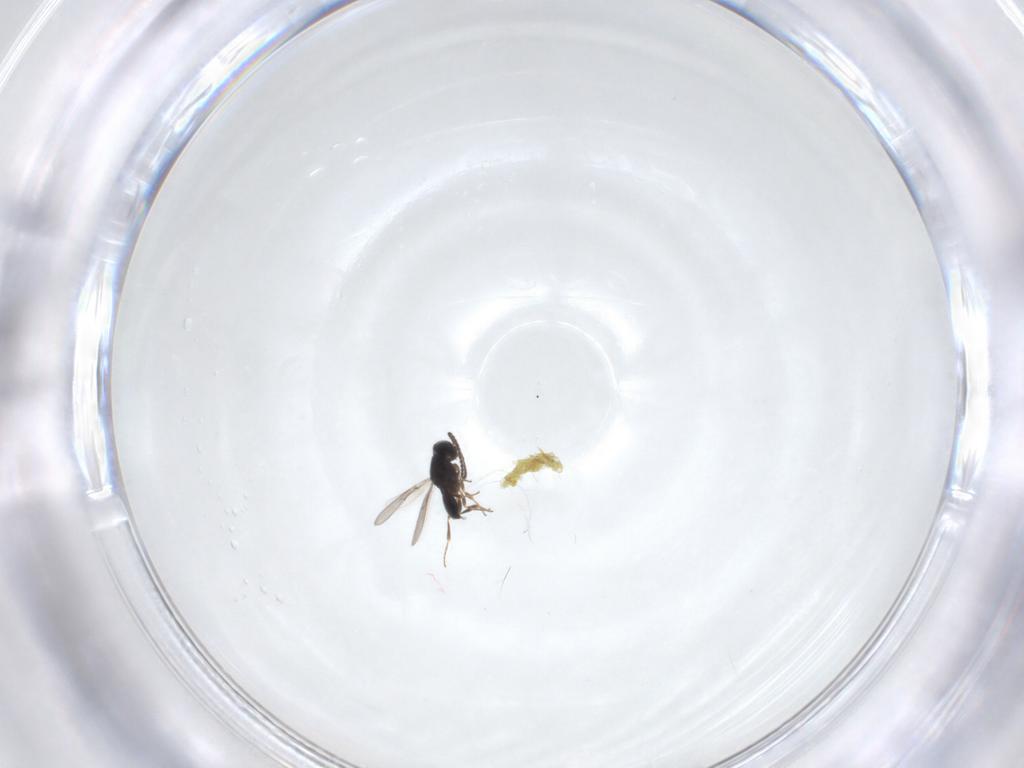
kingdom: Animalia
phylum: Arthropoda
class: Insecta
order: Hymenoptera
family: Scelionidae
